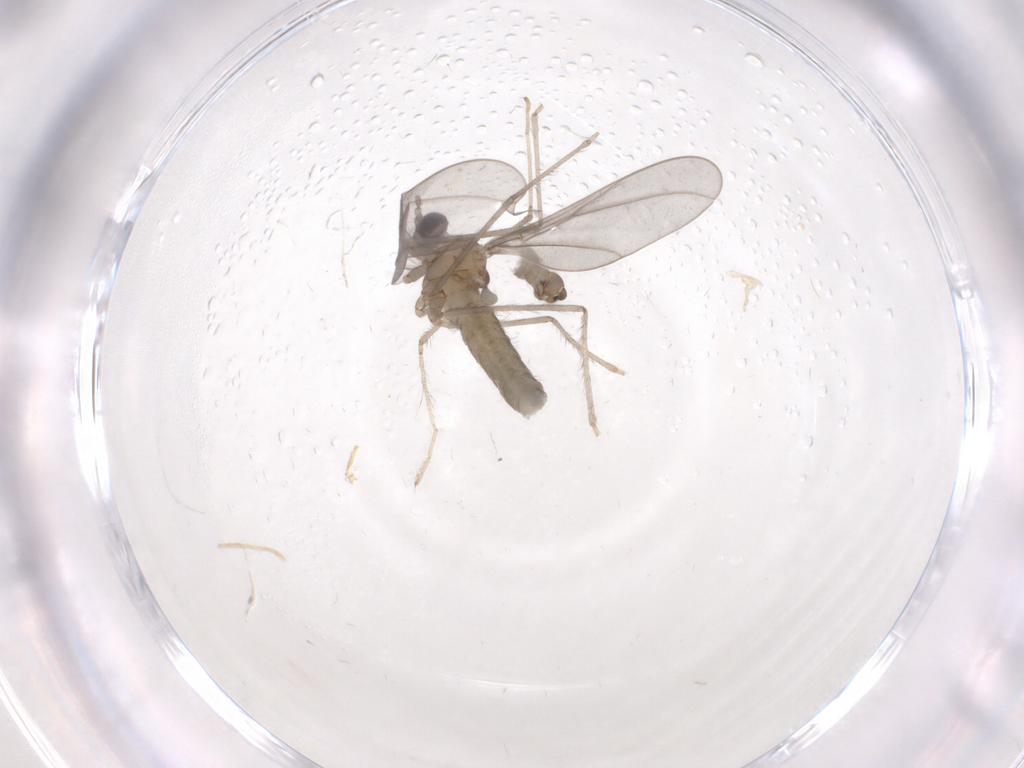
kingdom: Animalia
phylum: Arthropoda
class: Insecta
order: Diptera
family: Cecidomyiidae
